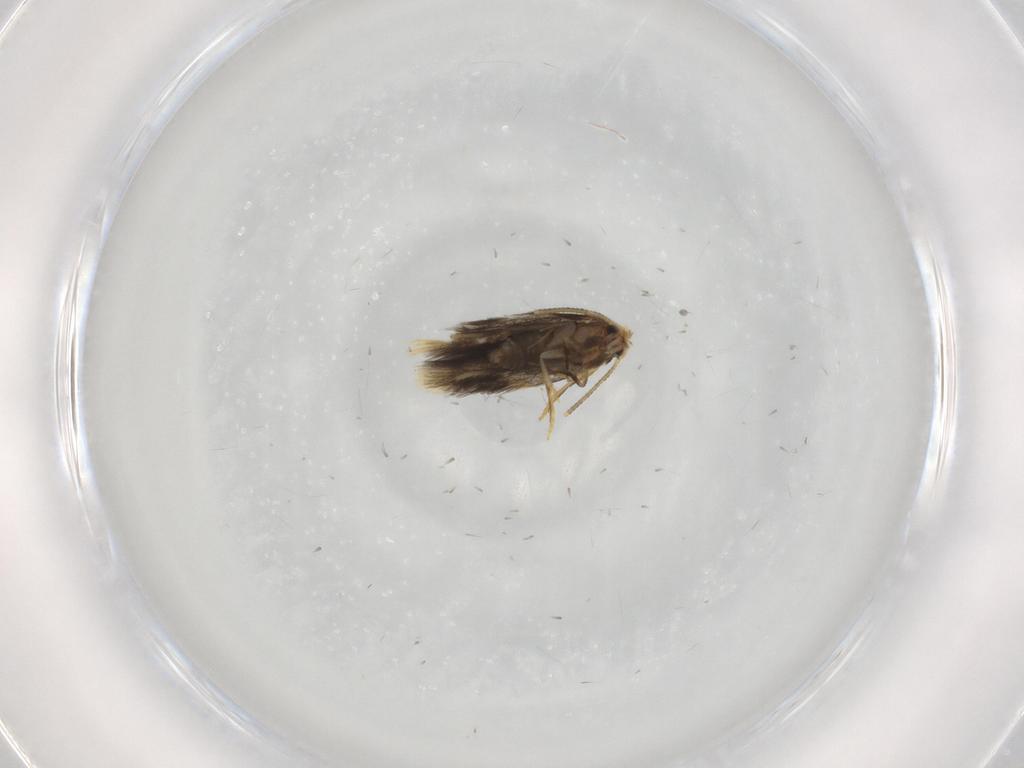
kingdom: Animalia
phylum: Arthropoda
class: Insecta
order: Lepidoptera
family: Copromorphidae
